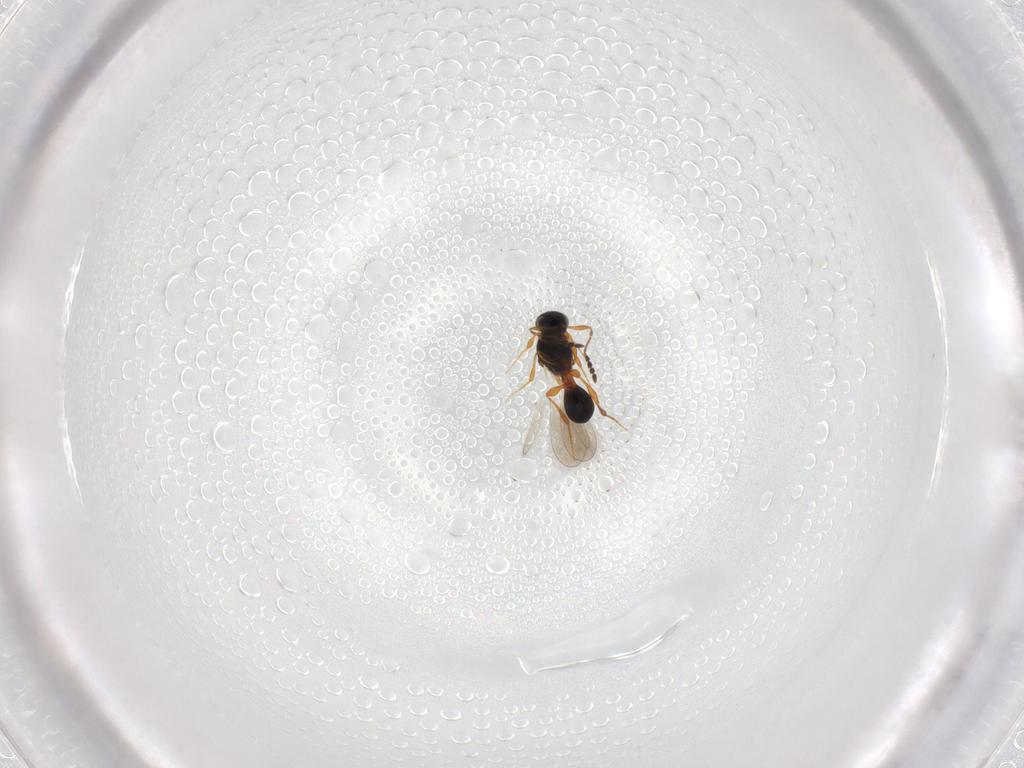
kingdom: Animalia
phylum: Arthropoda
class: Insecta
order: Hymenoptera
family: Platygastridae
